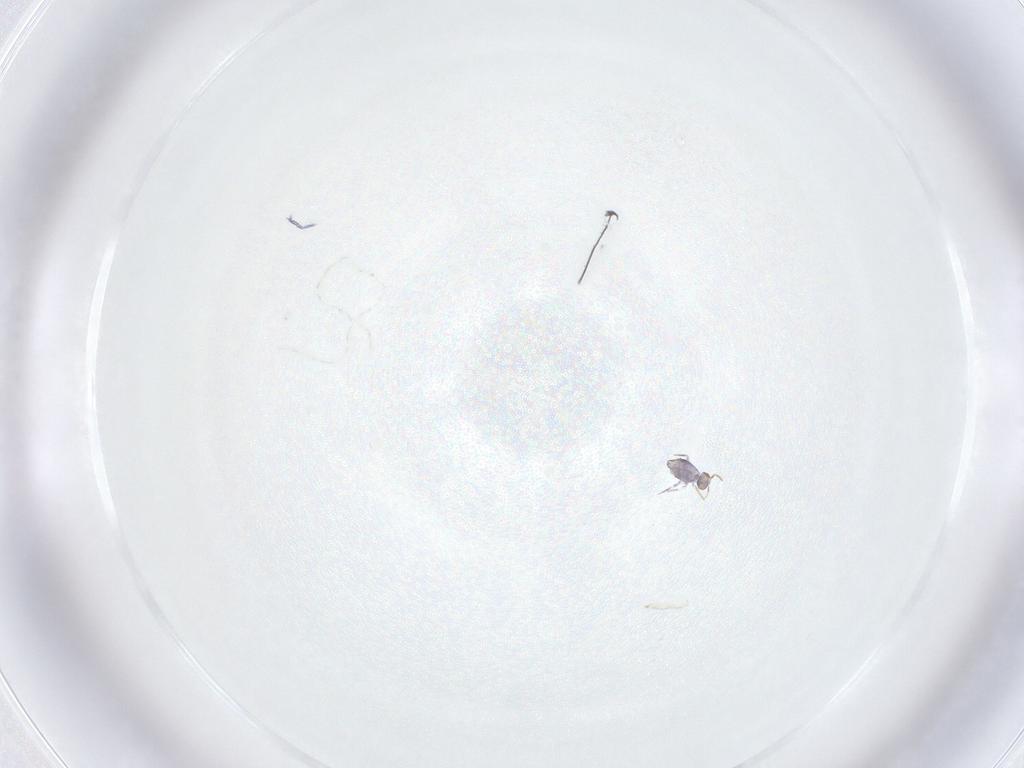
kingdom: Animalia
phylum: Arthropoda
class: Collembola
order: Symphypleona
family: Katiannidae
